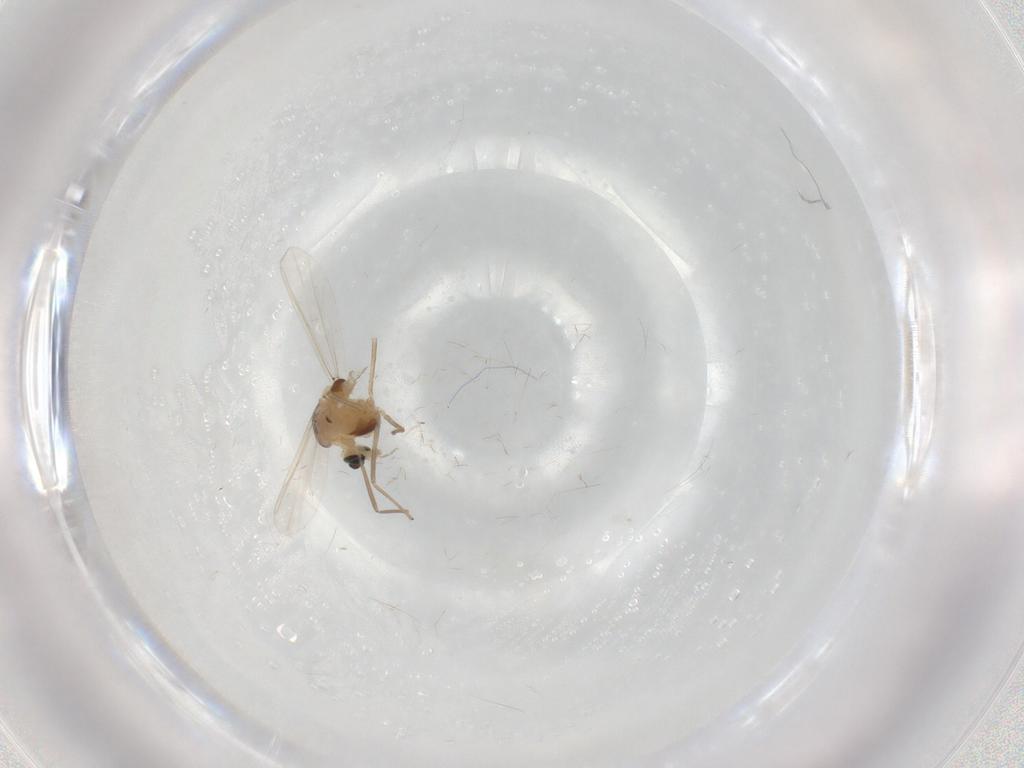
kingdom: Animalia
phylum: Arthropoda
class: Insecta
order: Diptera
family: Chironomidae
